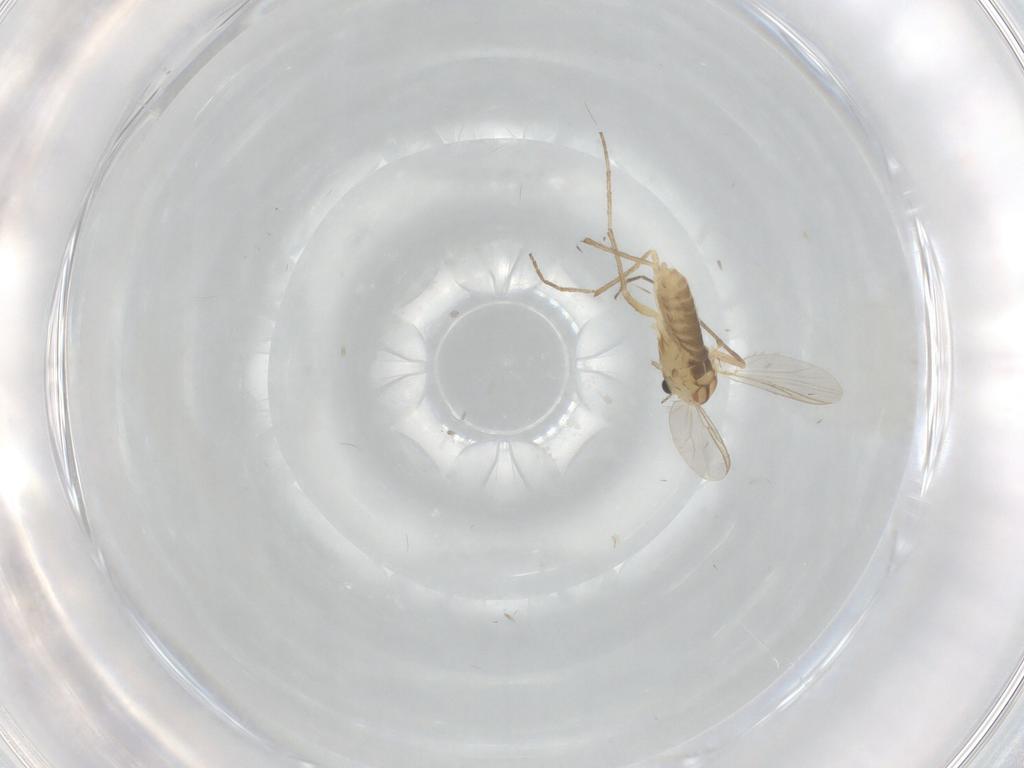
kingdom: Animalia
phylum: Arthropoda
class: Insecta
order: Diptera
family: Chironomidae
